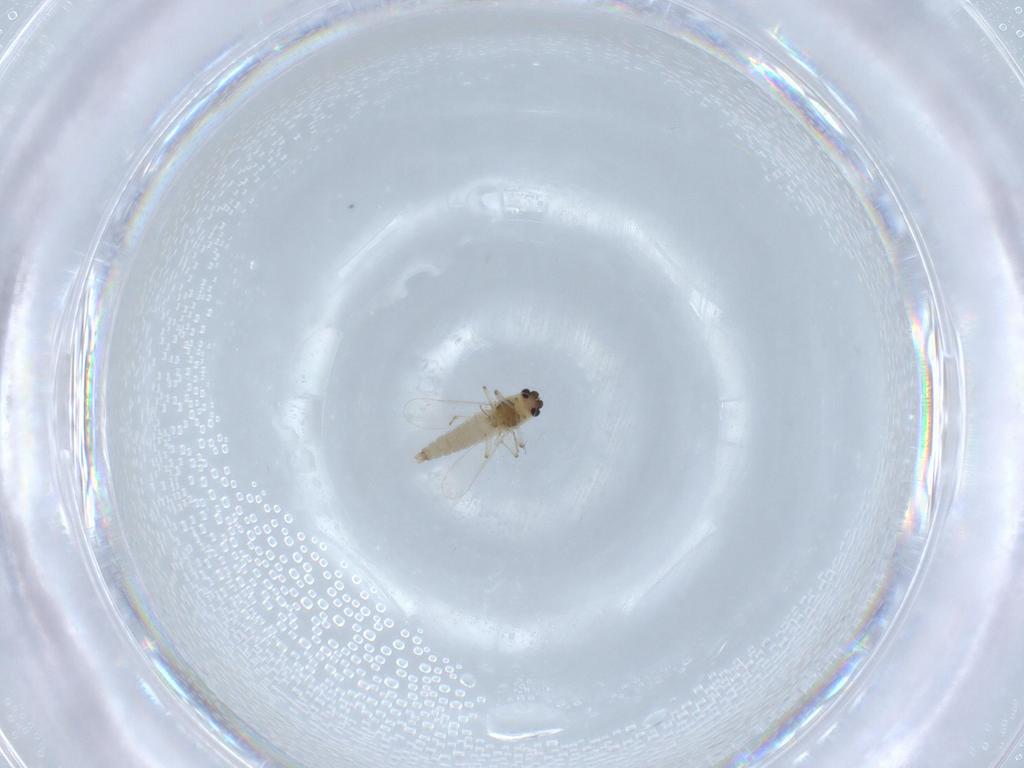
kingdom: Animalia
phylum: Arthropoda
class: Insecta
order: Diptera
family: Chironomidae
